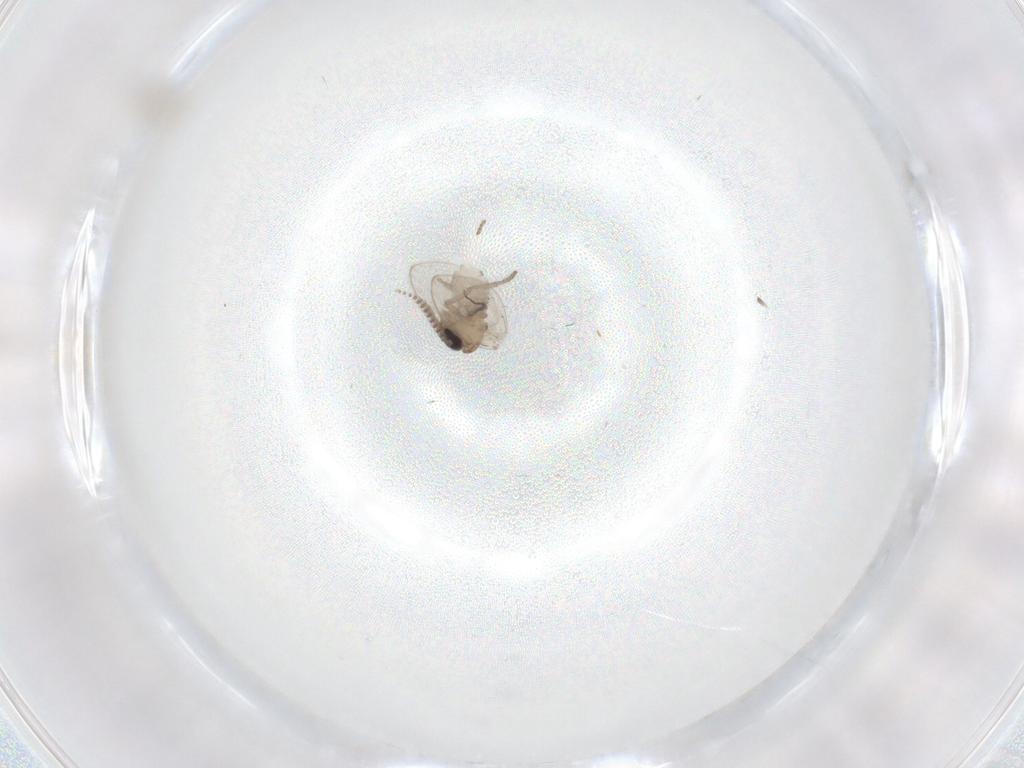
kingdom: Animalia
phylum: Arthropoda
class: Insecta
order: Diptera
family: Psychodidae
